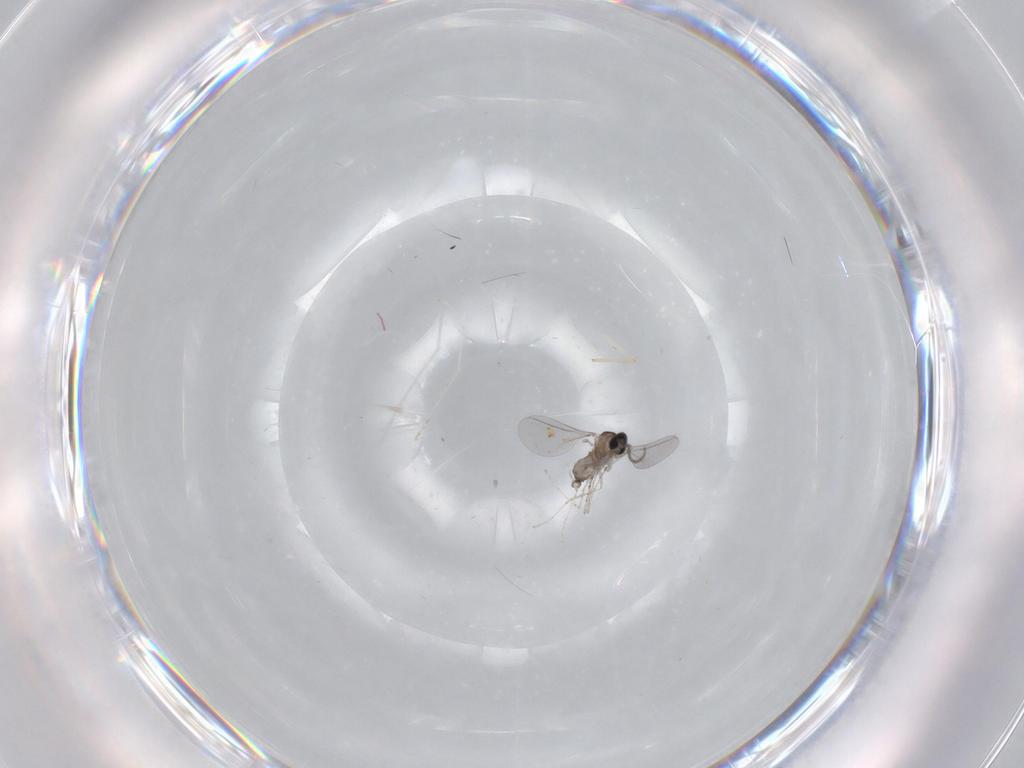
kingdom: Animalia
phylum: Arthropoda
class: Insecta
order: Diptera
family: Cecidomyiidae
